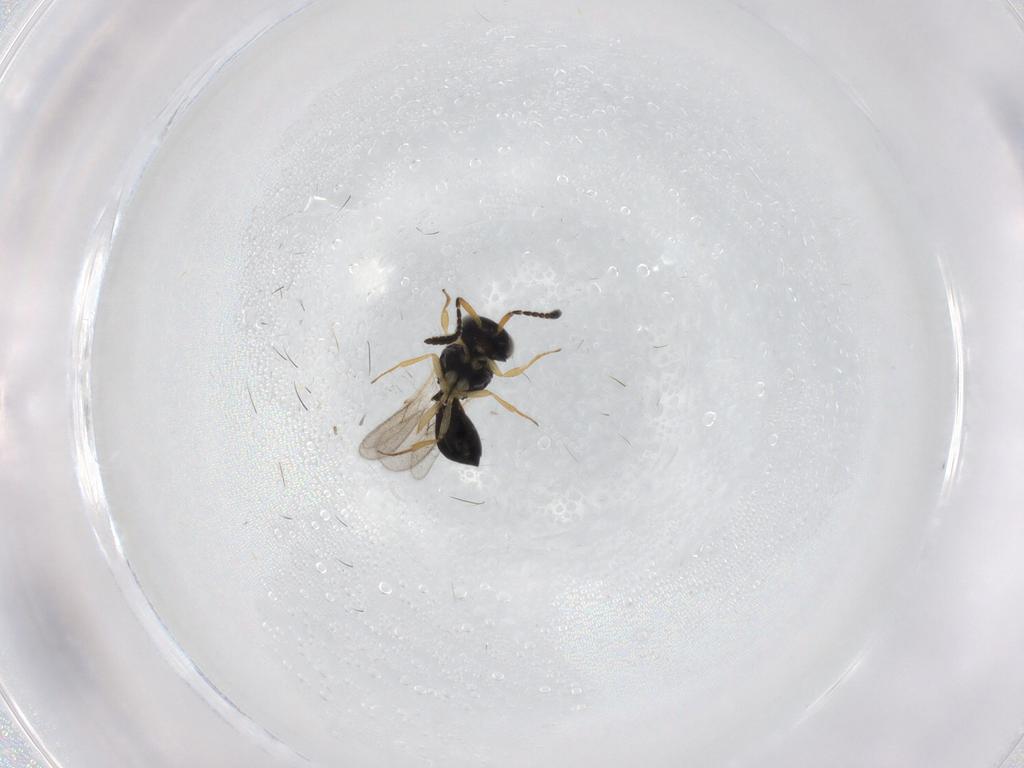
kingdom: Animalia
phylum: Arthropoda
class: Insecta
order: Hymenoptera
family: Scelionidae
